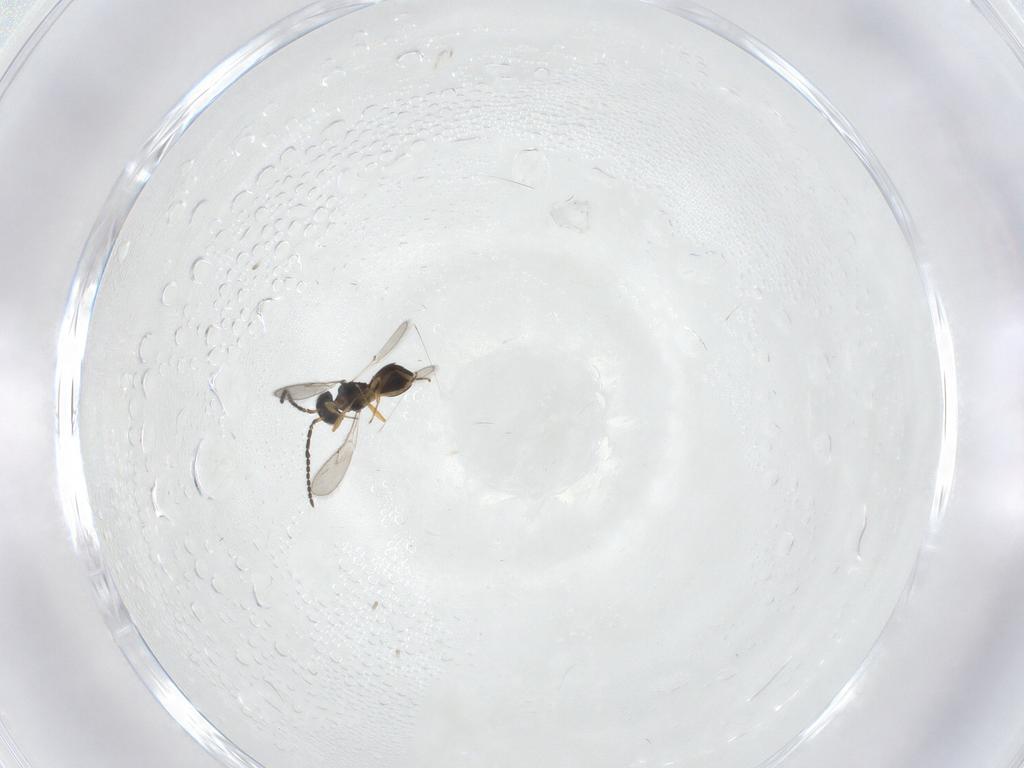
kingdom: Animalia
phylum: Arthropoda
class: Insecta
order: Hymenoptera
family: Scelionidae
